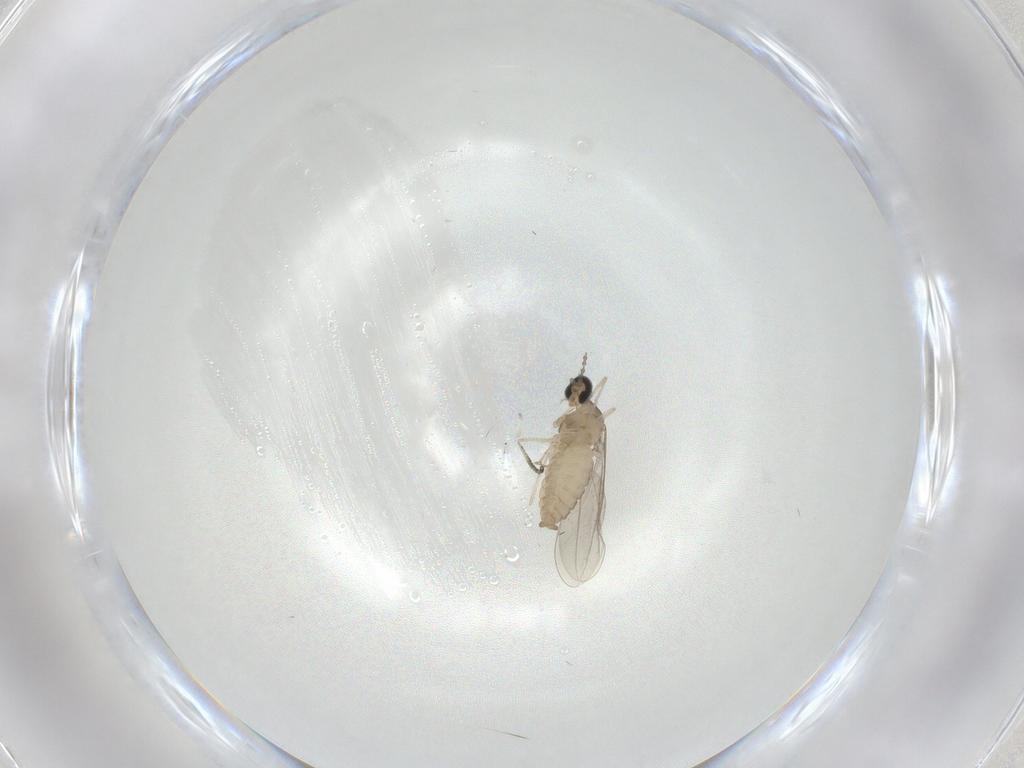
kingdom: Animalia
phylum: Arthropoda
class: Insecta
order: Diptera
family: Cecidomyiidae
